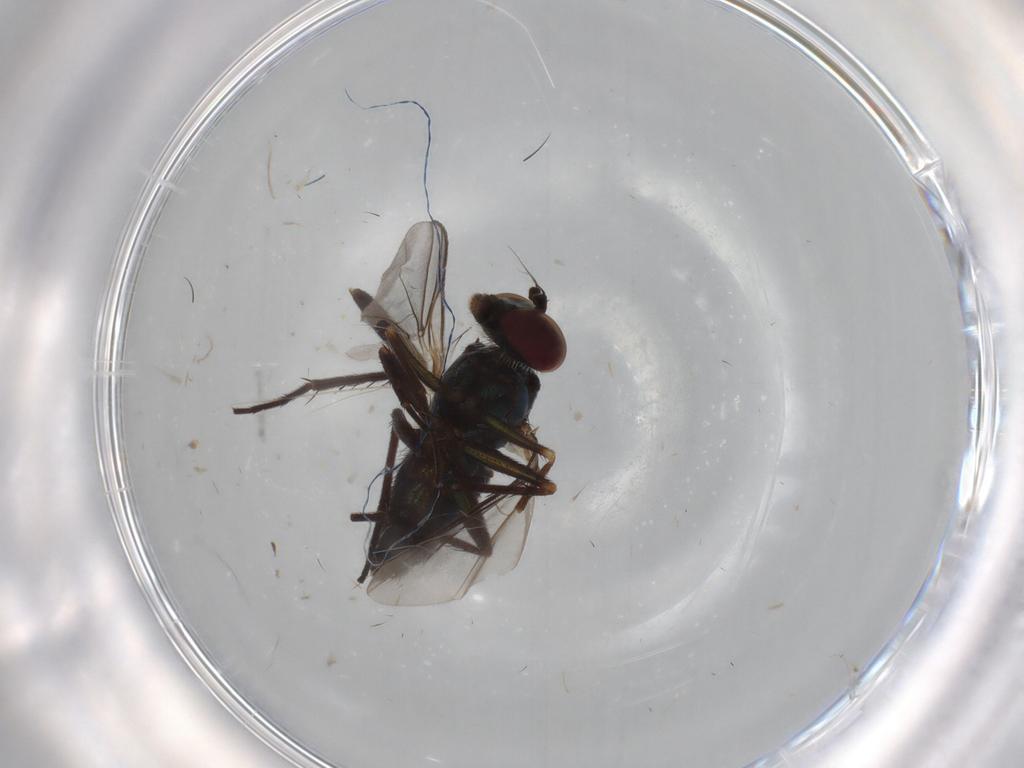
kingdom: Animalia
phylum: Arthropoda
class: Insecta
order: Diptera
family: Dolichopodidae
